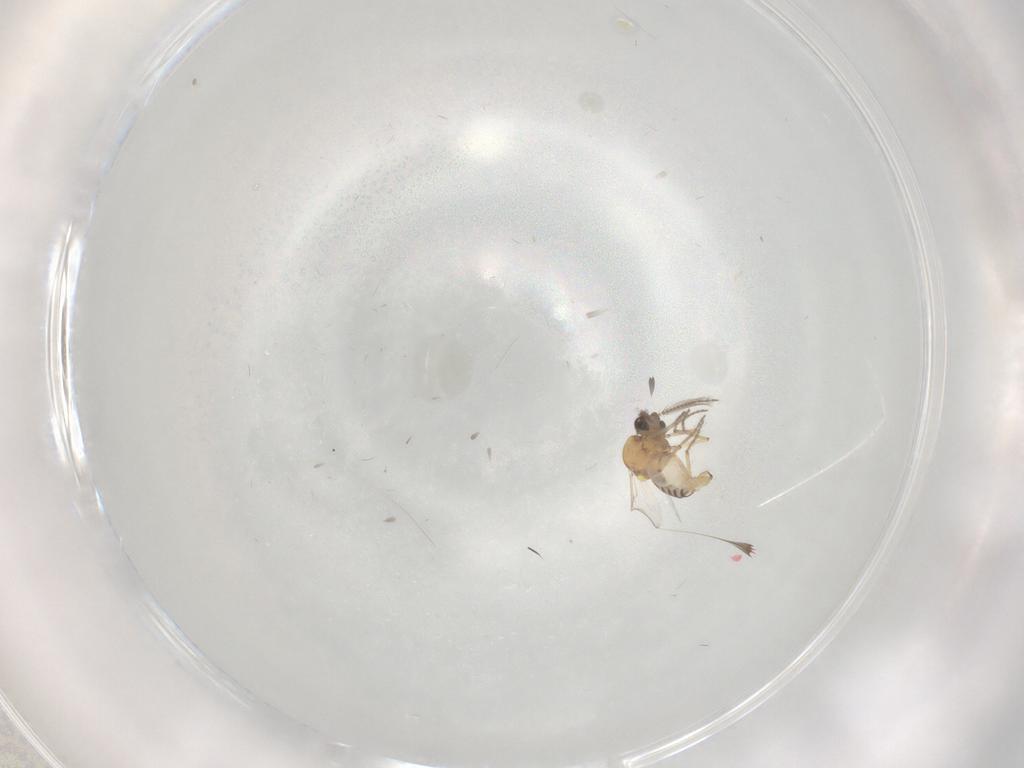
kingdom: Animalia
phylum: Arthropoda
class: Insecta
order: Diptera
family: Ceratopogonidae
